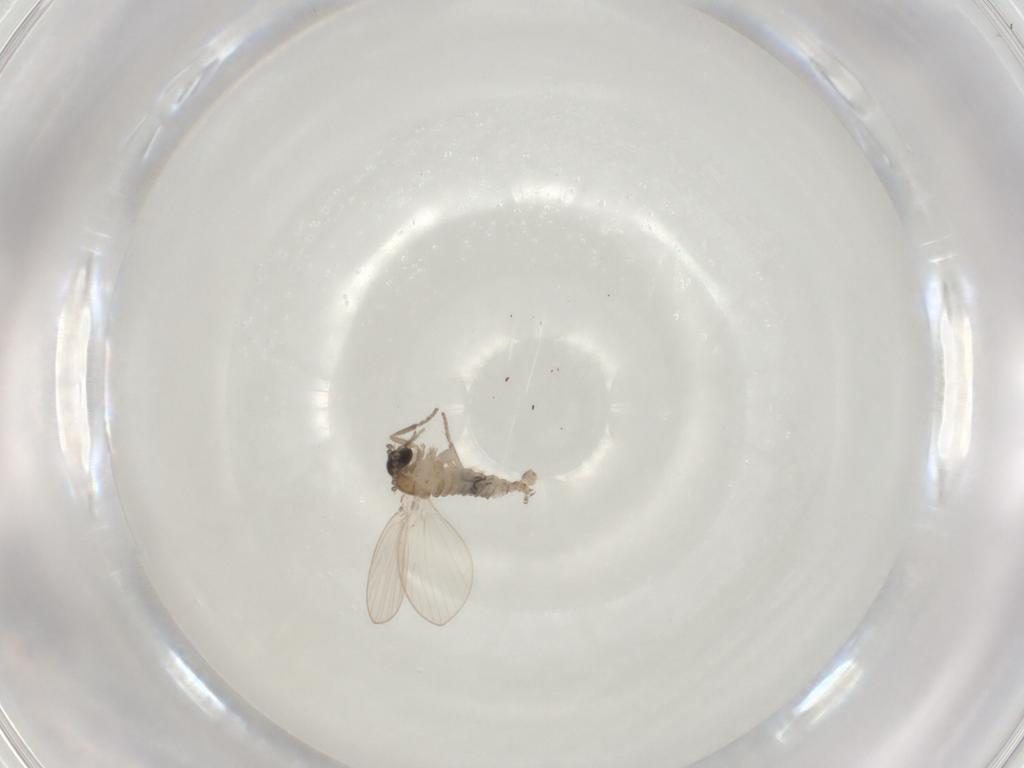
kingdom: Animalia
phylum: Arthropoda
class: Insecta
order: Diptera
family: Psychodidae
